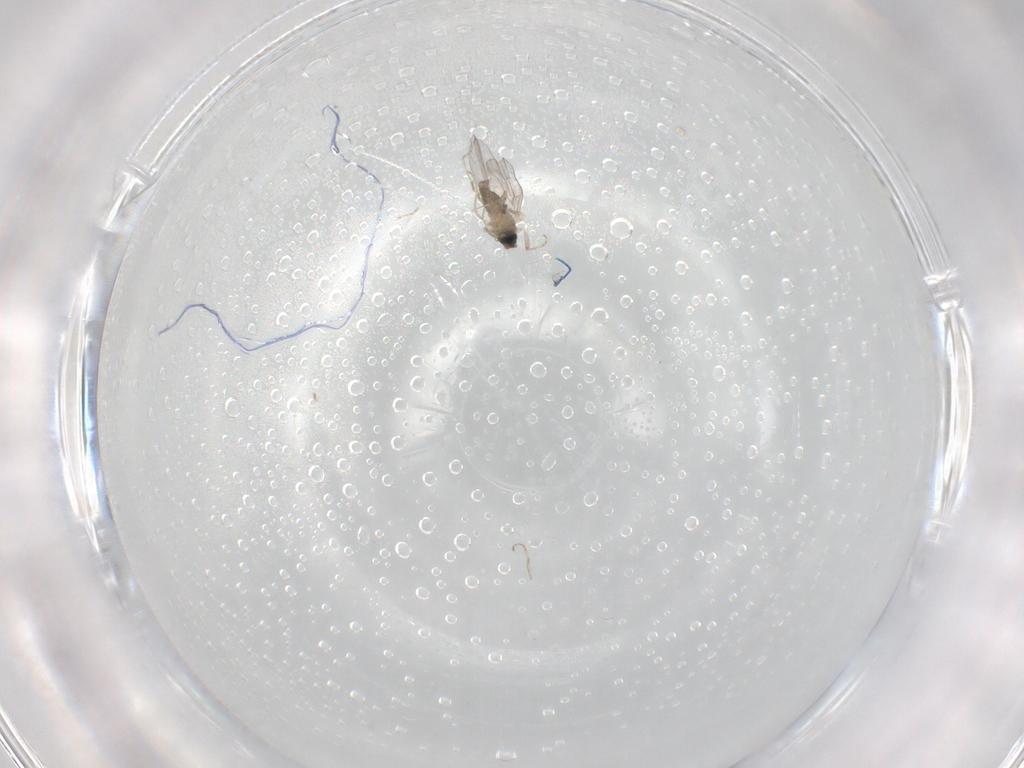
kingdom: Animalia
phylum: Arthropoda
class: Insecta
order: Diptera
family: Cecidomyiidae
